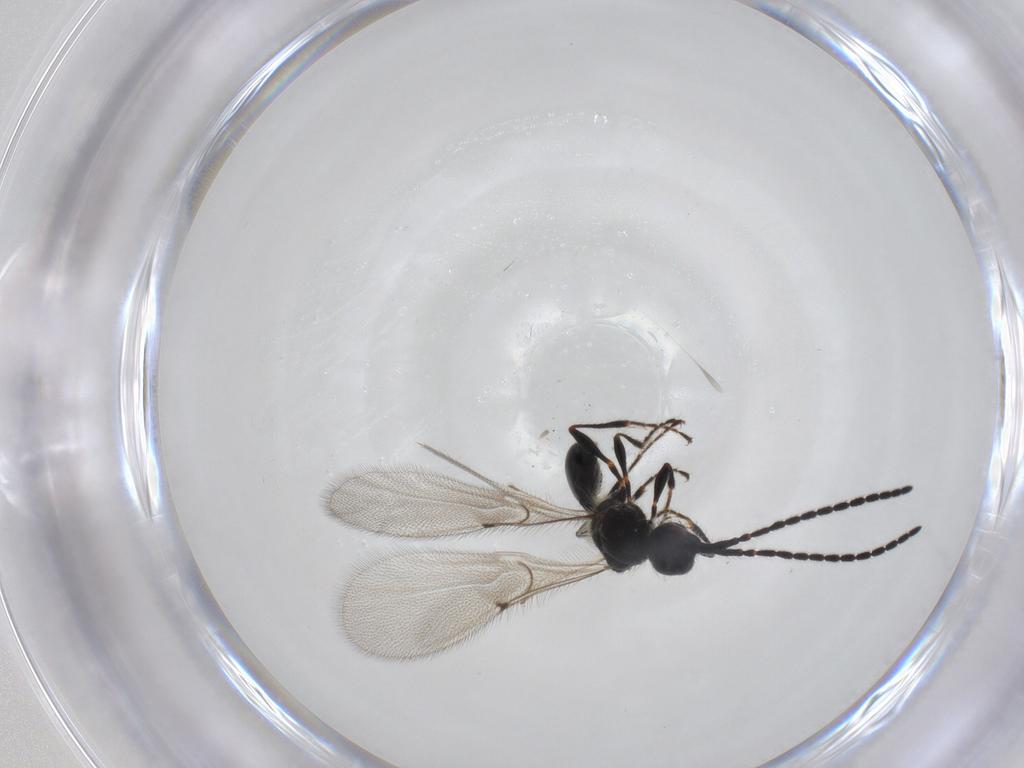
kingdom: Animalia
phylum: Arthropoda
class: Insecta
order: Hymenoptera
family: Diapriidae
